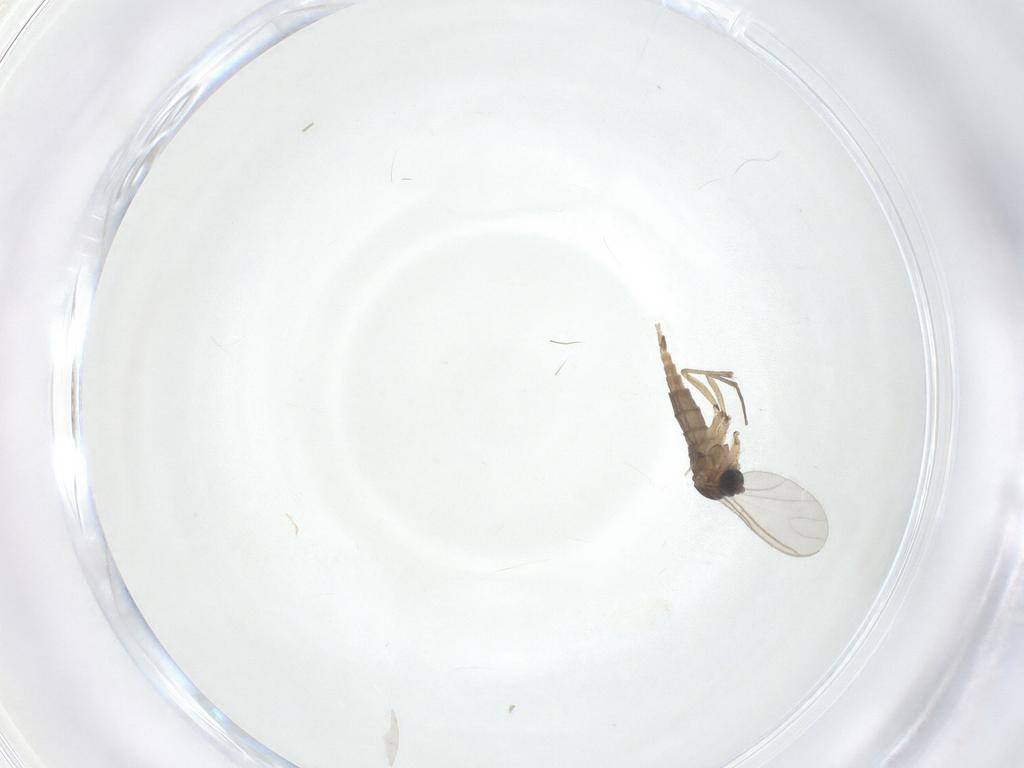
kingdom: Animalia
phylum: Arthropoda
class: Insecta
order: Diptera
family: Sciaridae
